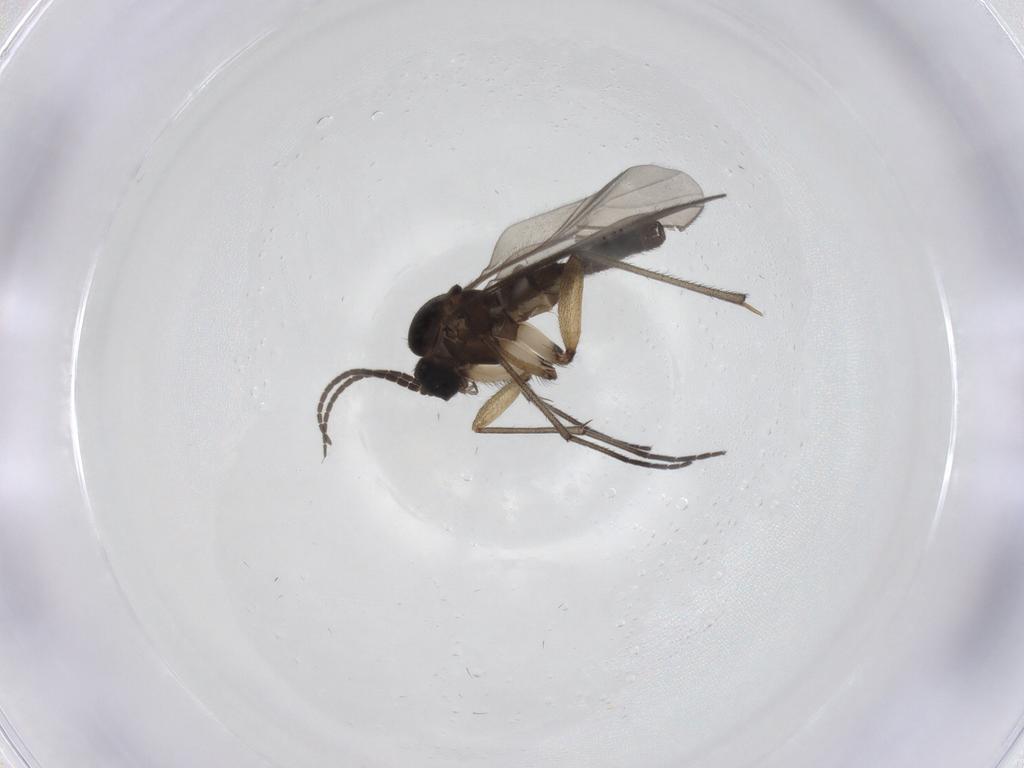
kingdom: Animalia
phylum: Arthropoda
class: Insecta
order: Diptera
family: Sciaridae
